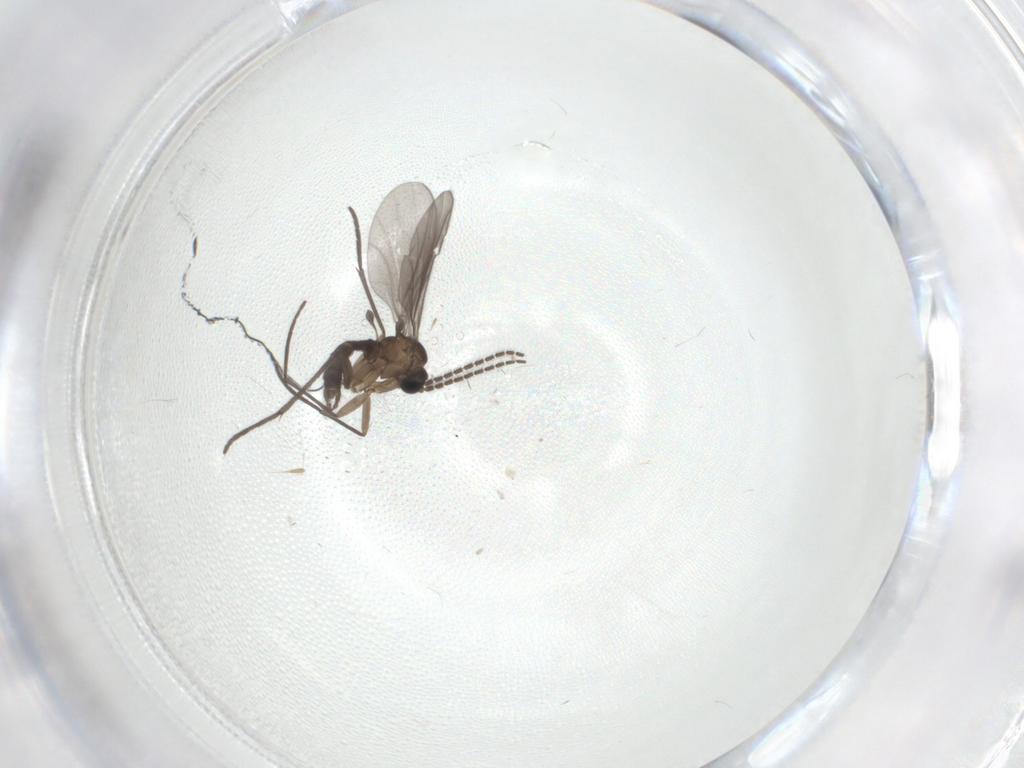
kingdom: Animalia
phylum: Arthropoda
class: Insecta
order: Diptera
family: Sciaridae
